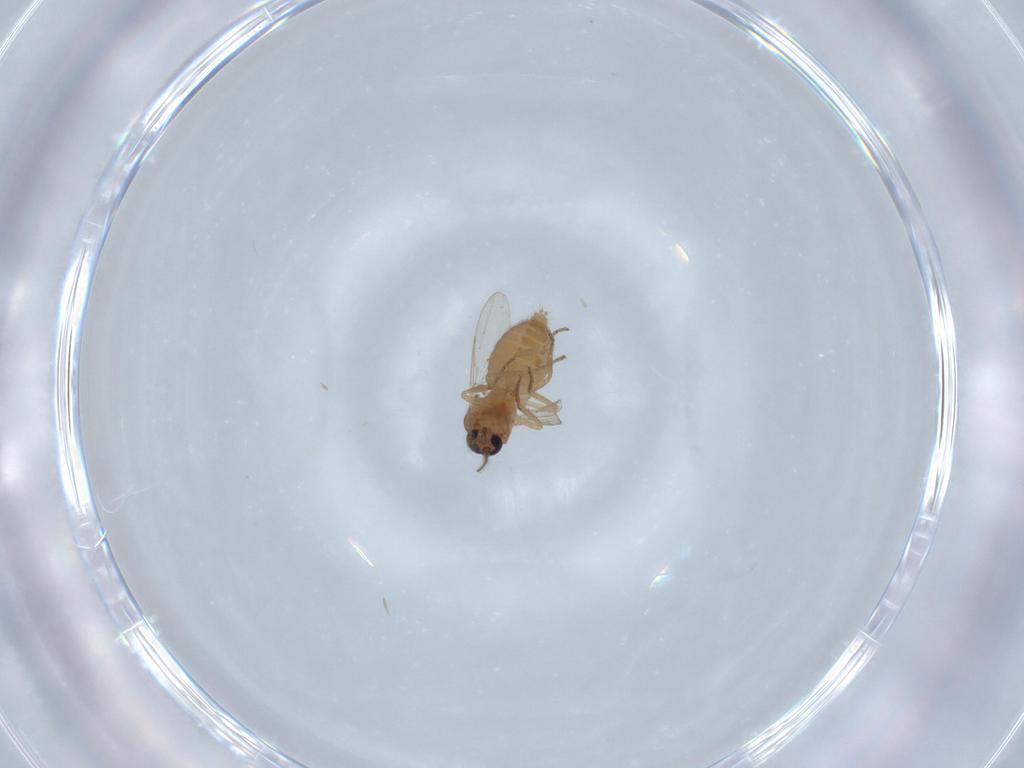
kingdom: Animalia
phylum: Arthropoda
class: Insecta
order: Diptera
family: Ceratopogonidae
